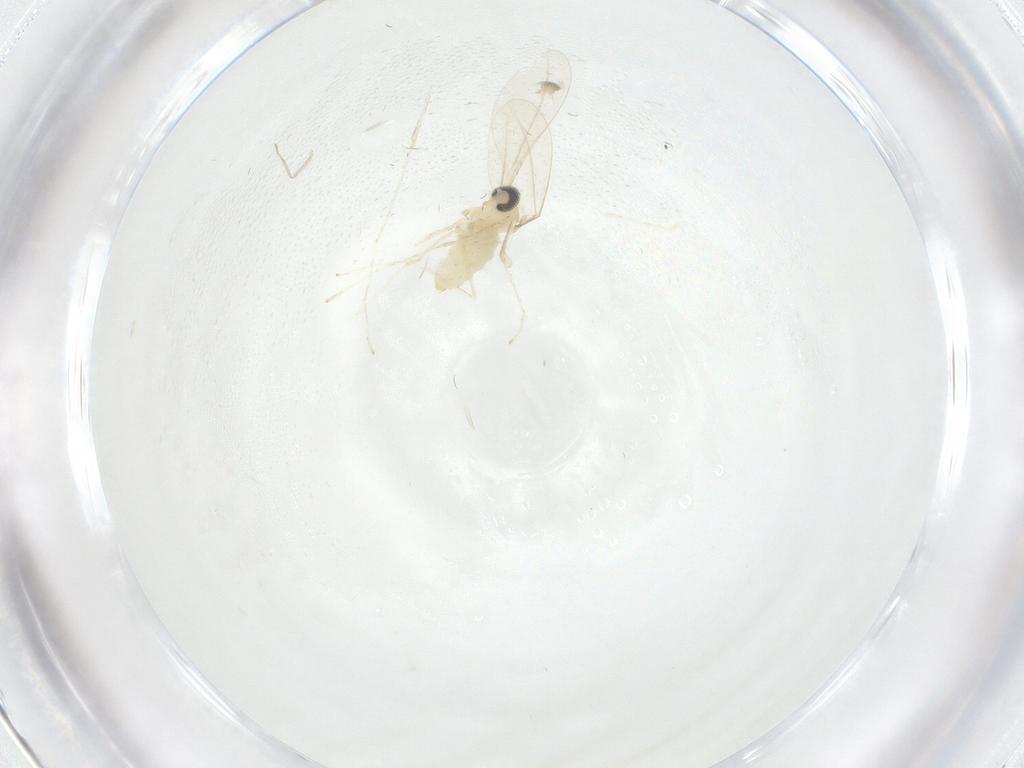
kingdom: Animalia
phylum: Arthropoda
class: Insecta
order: Diptera
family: Cecidomyiidae
